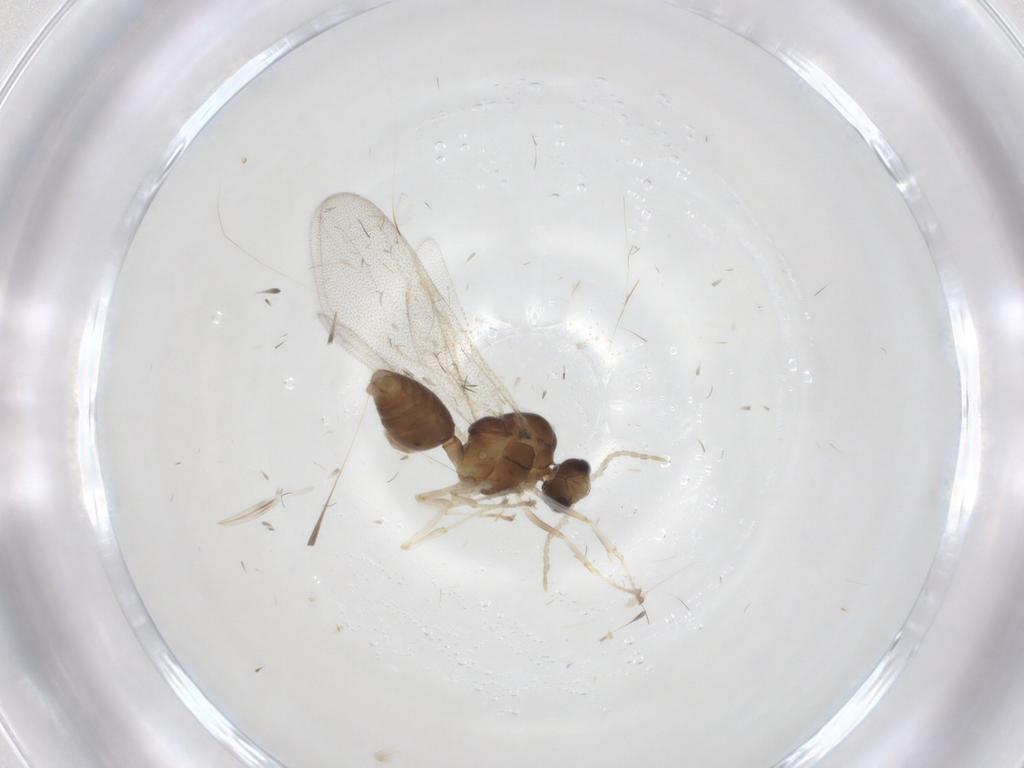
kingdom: Animalia
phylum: Arthropoda
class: Insecta
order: Hymenoptera
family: Formicidae
